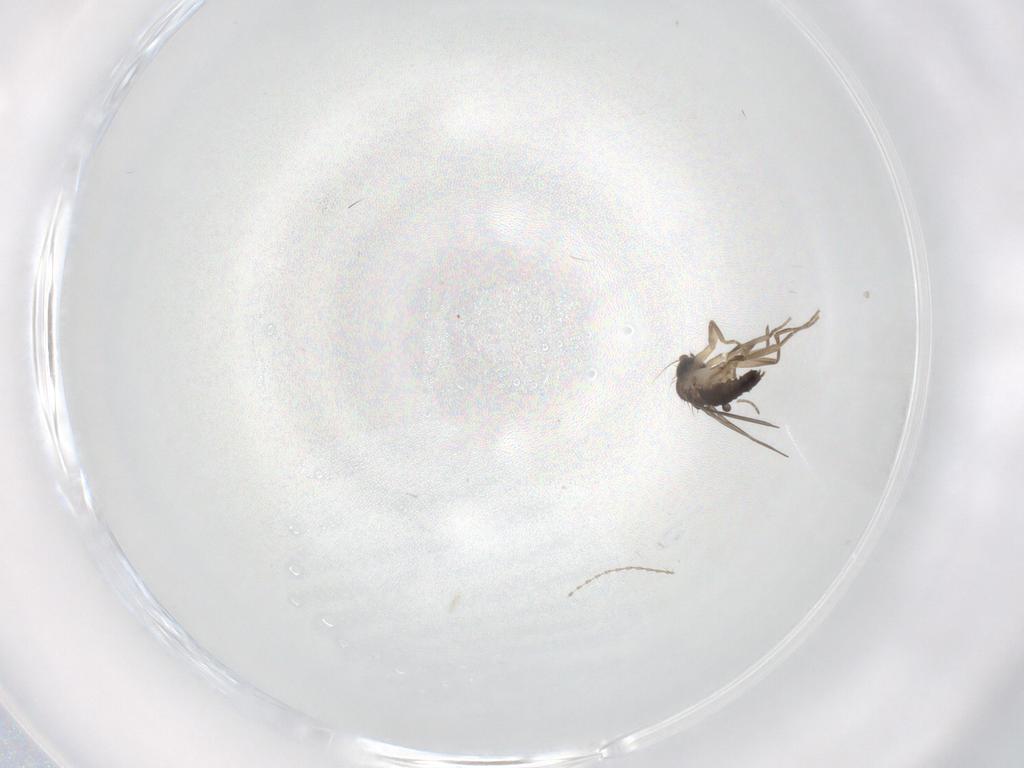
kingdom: Animalia
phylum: Arthropoda
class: Insecta
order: Diptera
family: Phoridae
